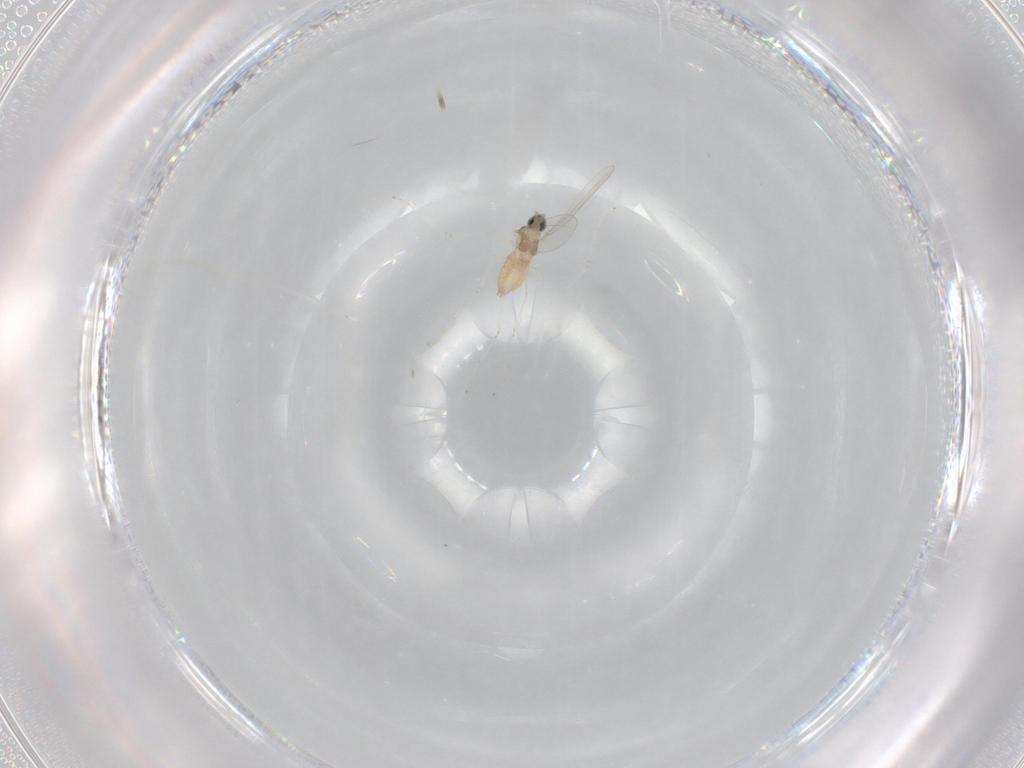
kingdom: Animalia
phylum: Arthropoda
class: Insecta
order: Diptera
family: Cecidomyiidae
